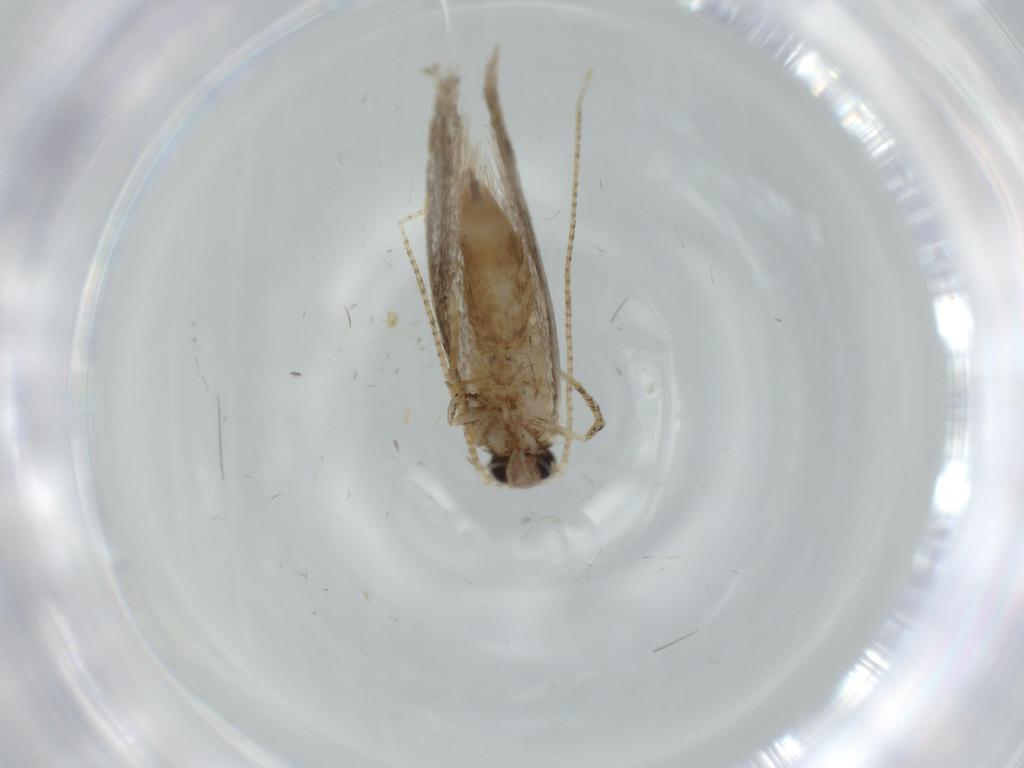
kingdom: Animalia
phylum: Arthropoda
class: Insecta
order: Lepidoptera
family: Tineidae
